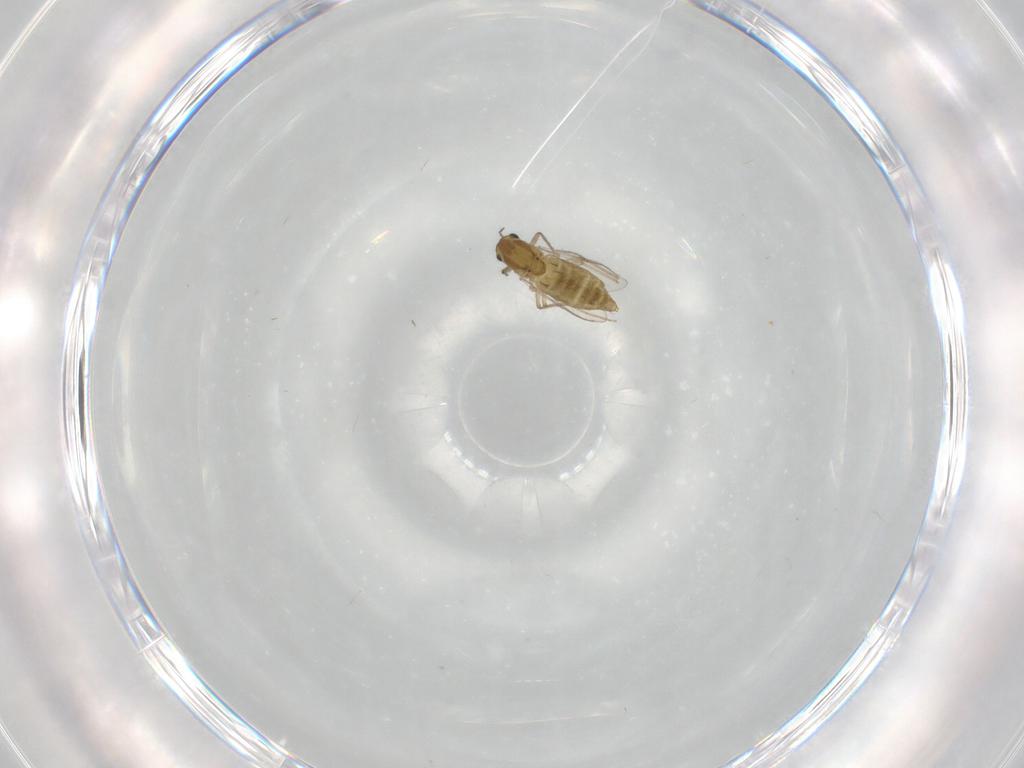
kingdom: Animalia
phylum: Arthropoda
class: Insecta
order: Diptera
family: Chironomidae
